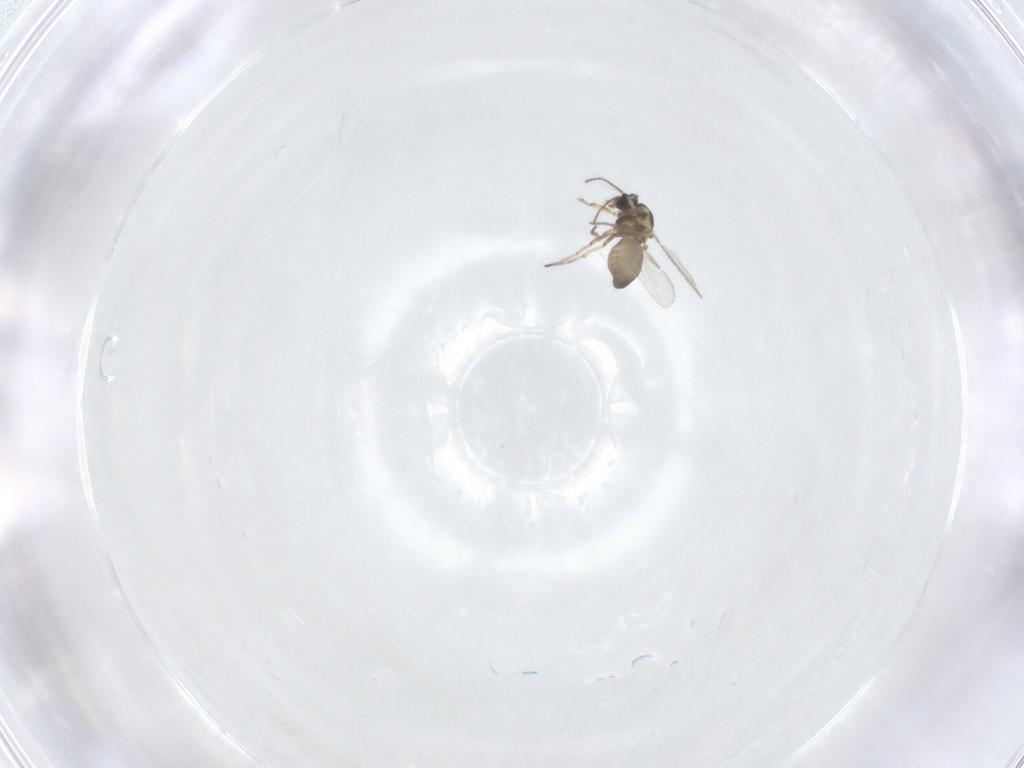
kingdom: Animalia
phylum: Arthropoda
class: Insecta
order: Diptera
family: Ceratopogonidae
